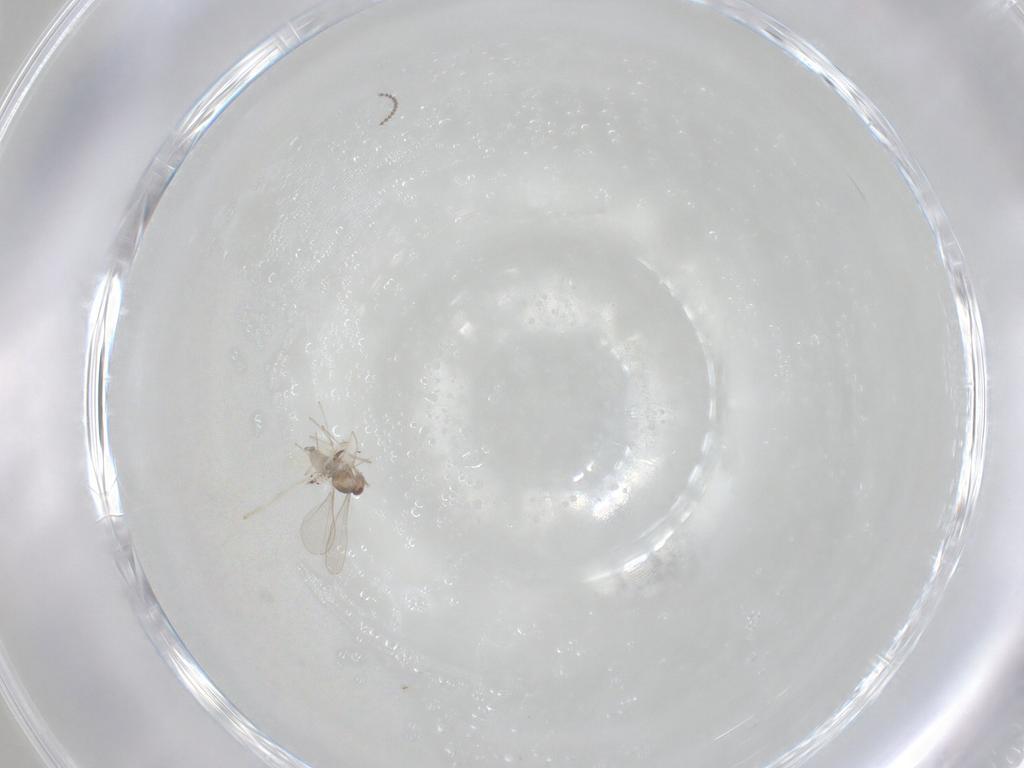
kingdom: Animalia
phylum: Arthropoda
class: Insecta
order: Diptera
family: Cecidomyiidae
